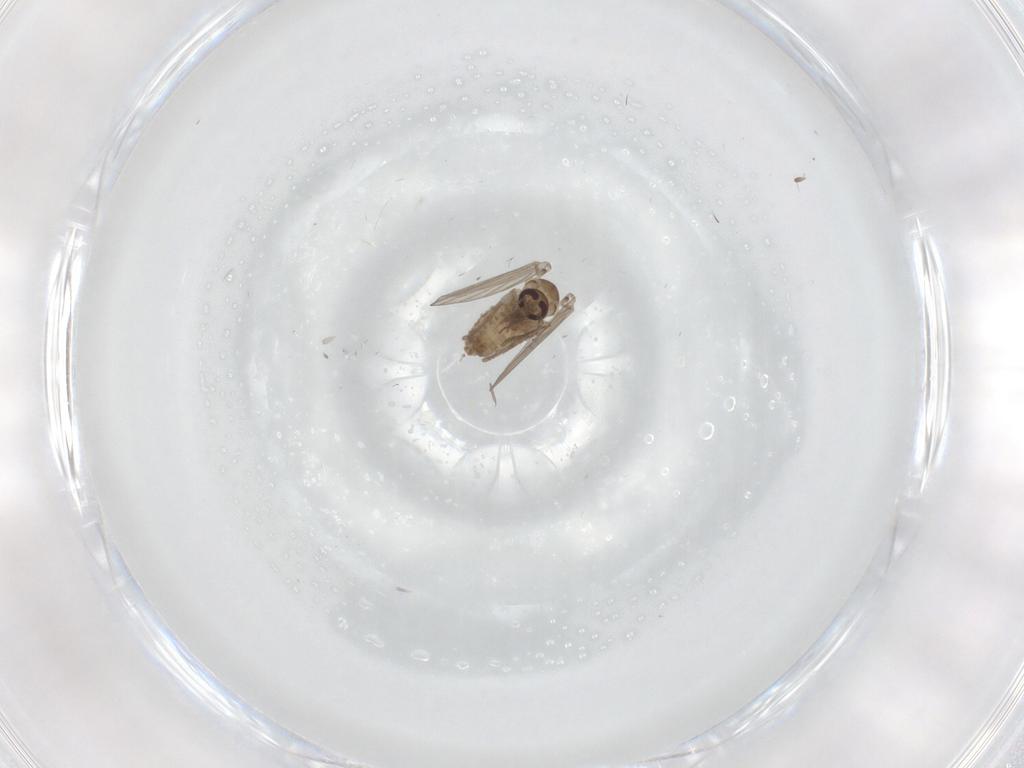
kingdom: Animalia
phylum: Arthropoda
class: Insecta
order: Diptera
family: Psychodidae
